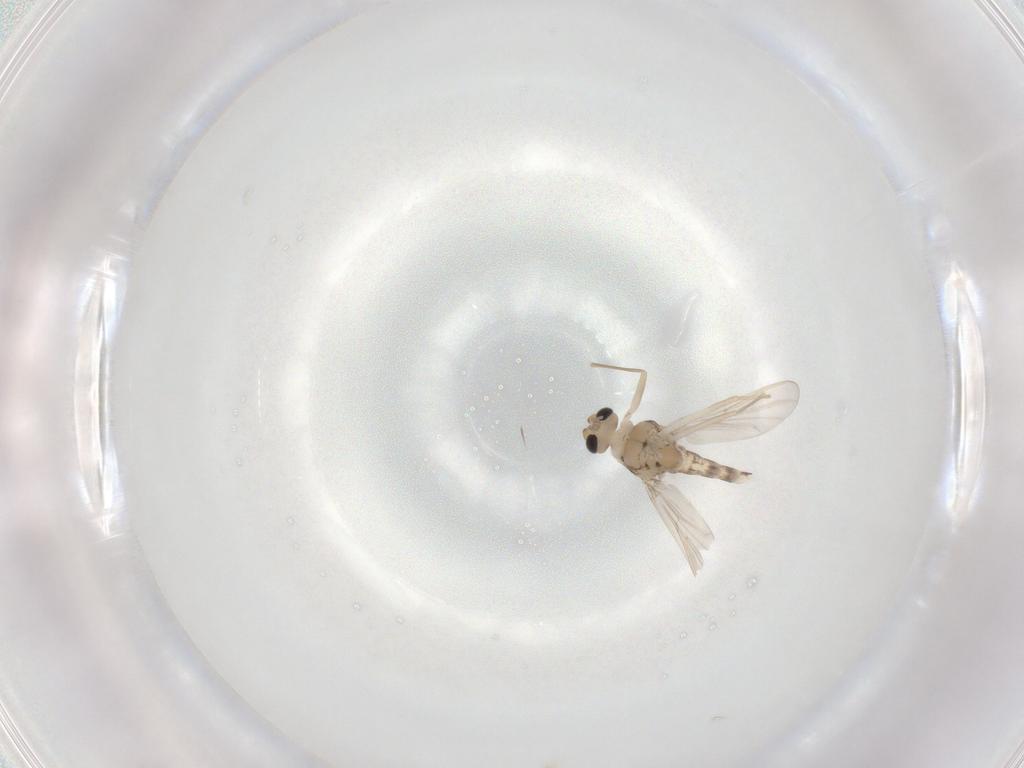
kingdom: Animalia
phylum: Arthropoda
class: Insecta
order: Diptera
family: Chironomidae
